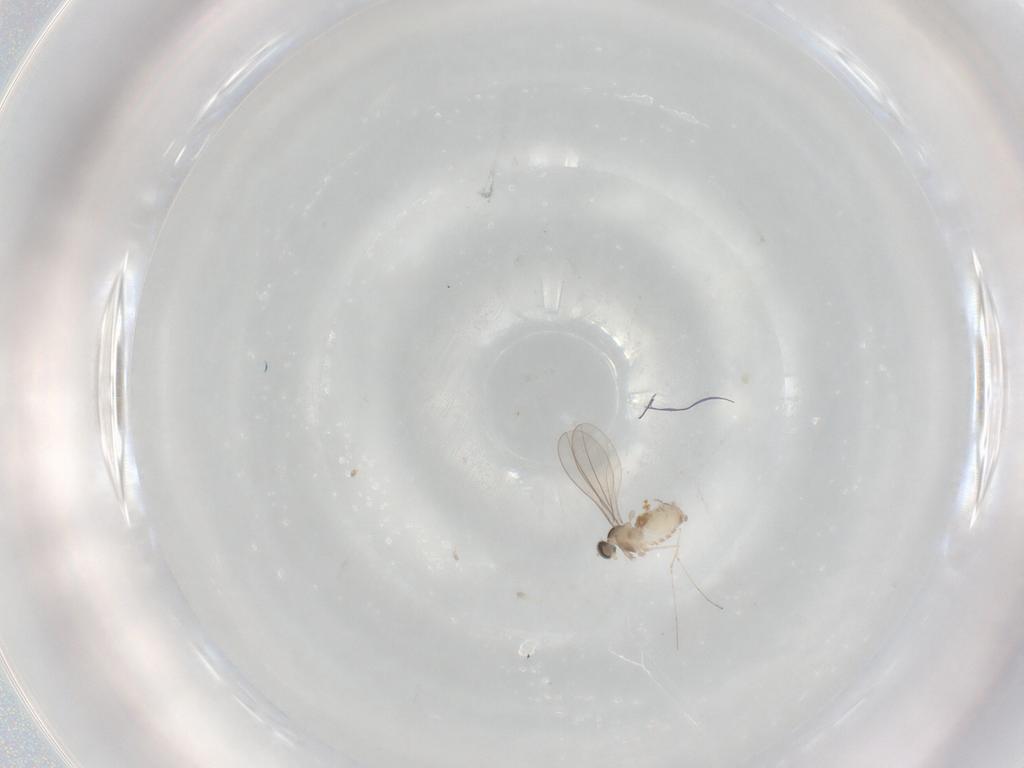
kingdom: Animalia
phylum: Arthropoda
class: Insecta
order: Diptera
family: Cecidomyiidae
